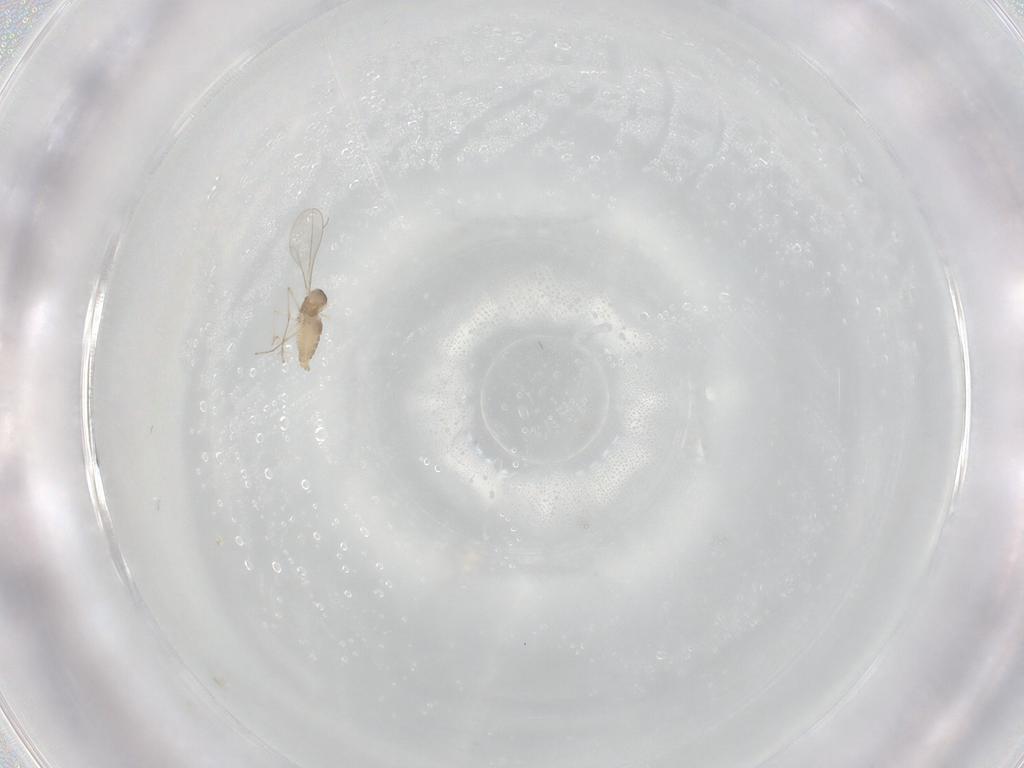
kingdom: Animalia
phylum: Arthropoda
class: Insecta
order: Diptera
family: Cecidomyiidae
